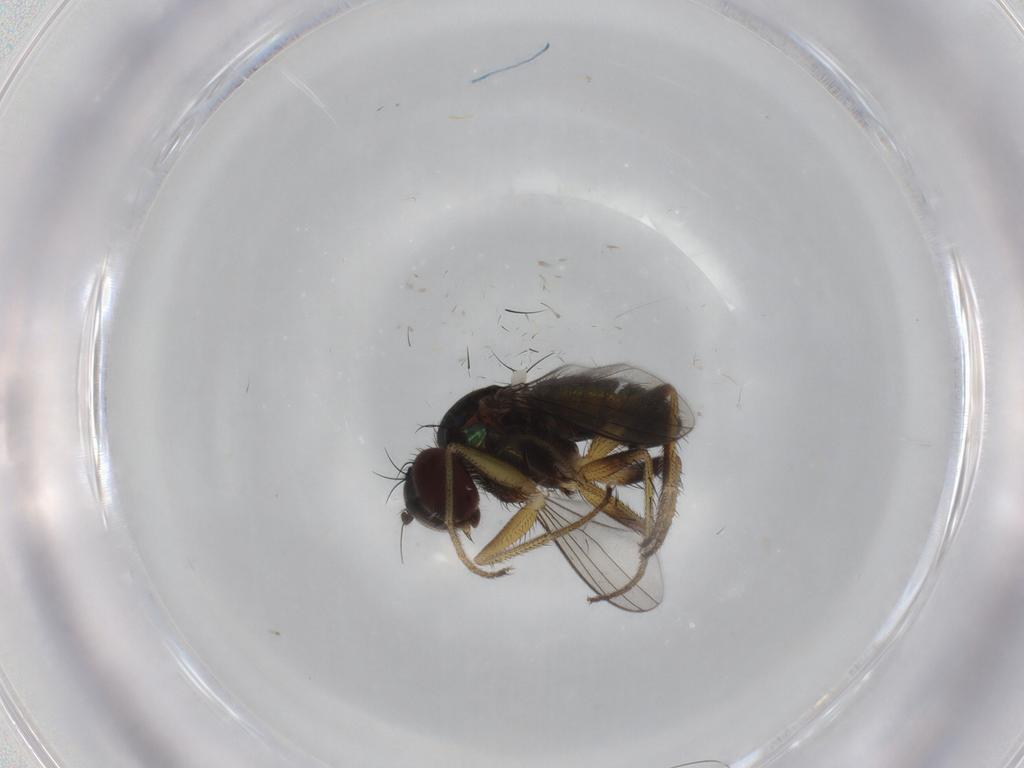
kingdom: Animalia
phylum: Arthropoda
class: Insecta
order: Diptera
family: Dolichopodidae
